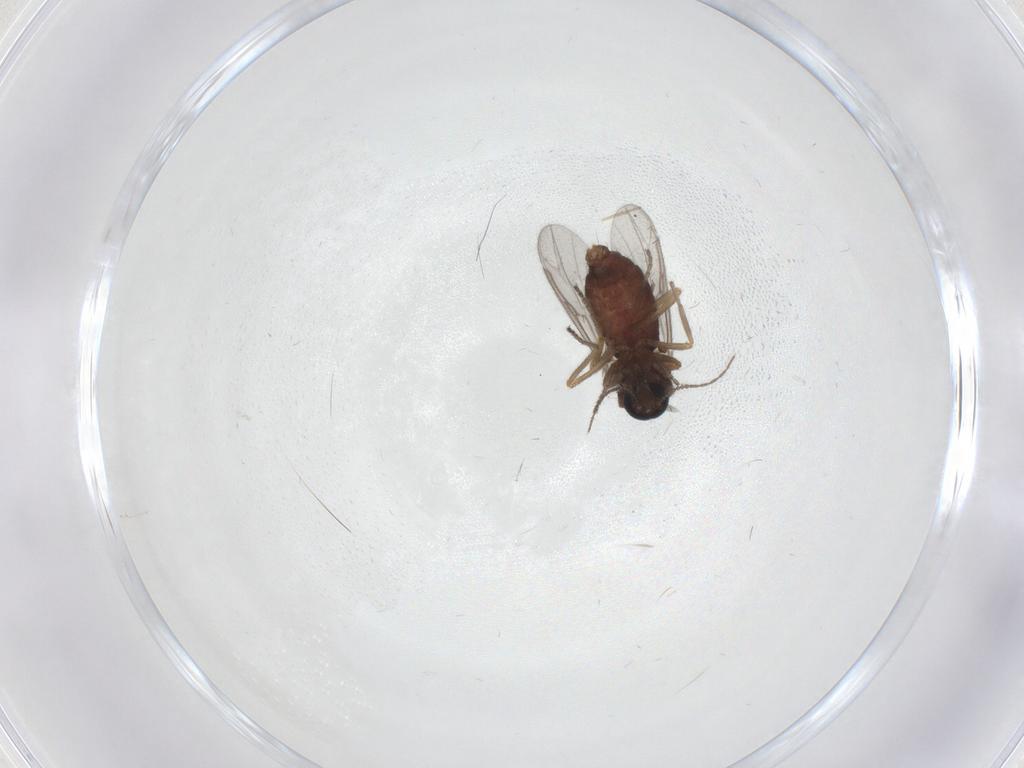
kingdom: Animalia
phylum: Arthropoda
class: Insecta
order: Diptera
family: Ceratopogonidae
